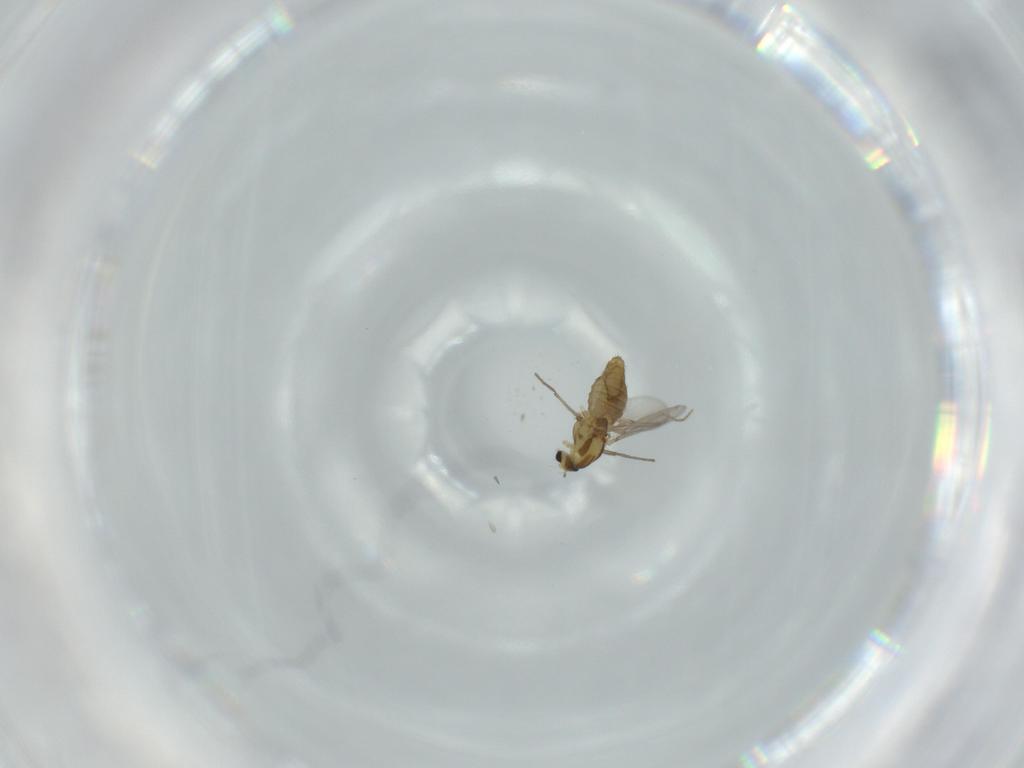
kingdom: Animalia
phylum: Arthropoda
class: Insecta
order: Diptera
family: Chironomidae
